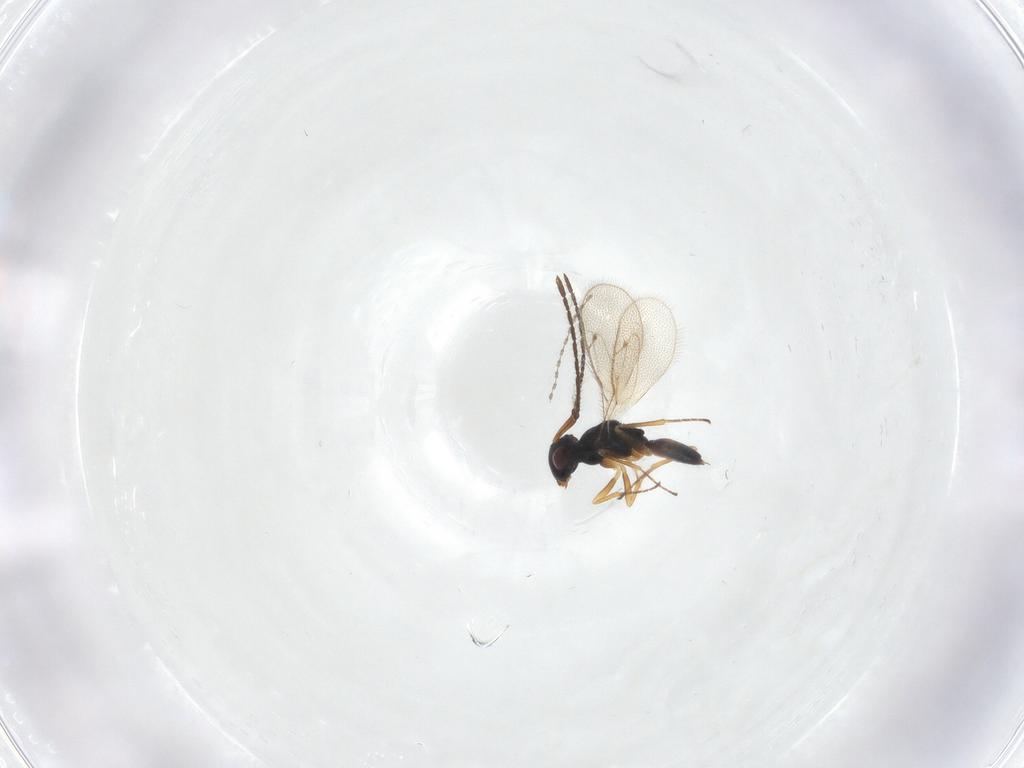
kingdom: Animalia
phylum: Arthropoda
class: Insecta
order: Hymenoptera
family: Pteromalidae
